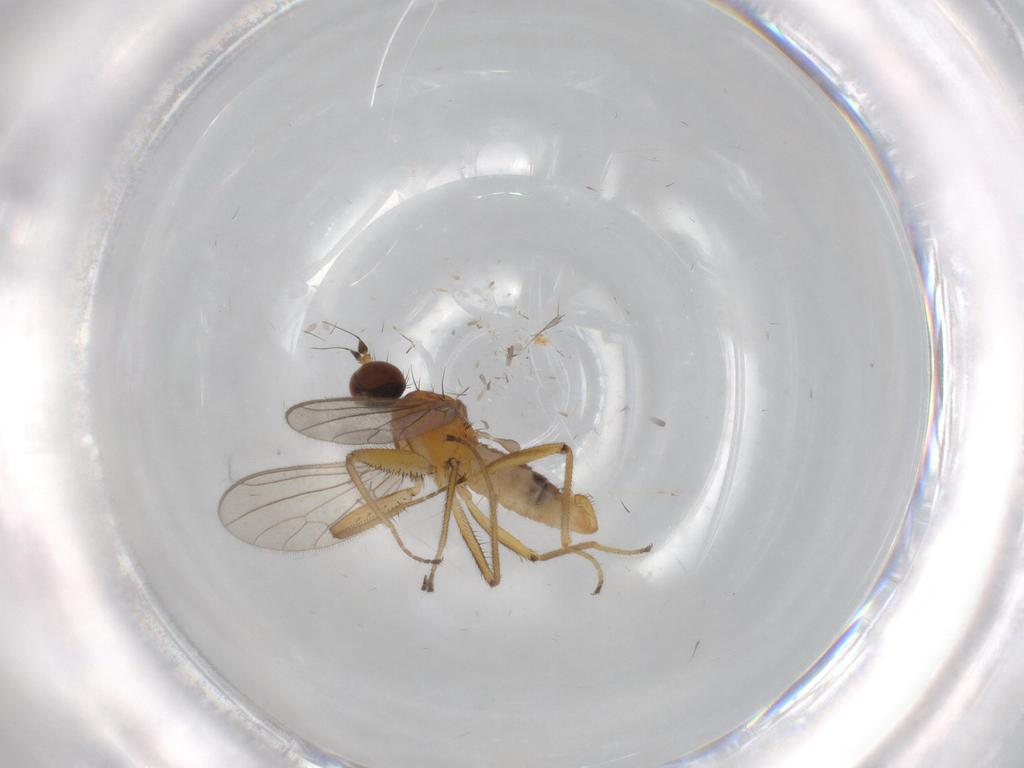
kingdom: Animalia
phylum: Arthropoda
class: Insecta
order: Diptera
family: Empididae
